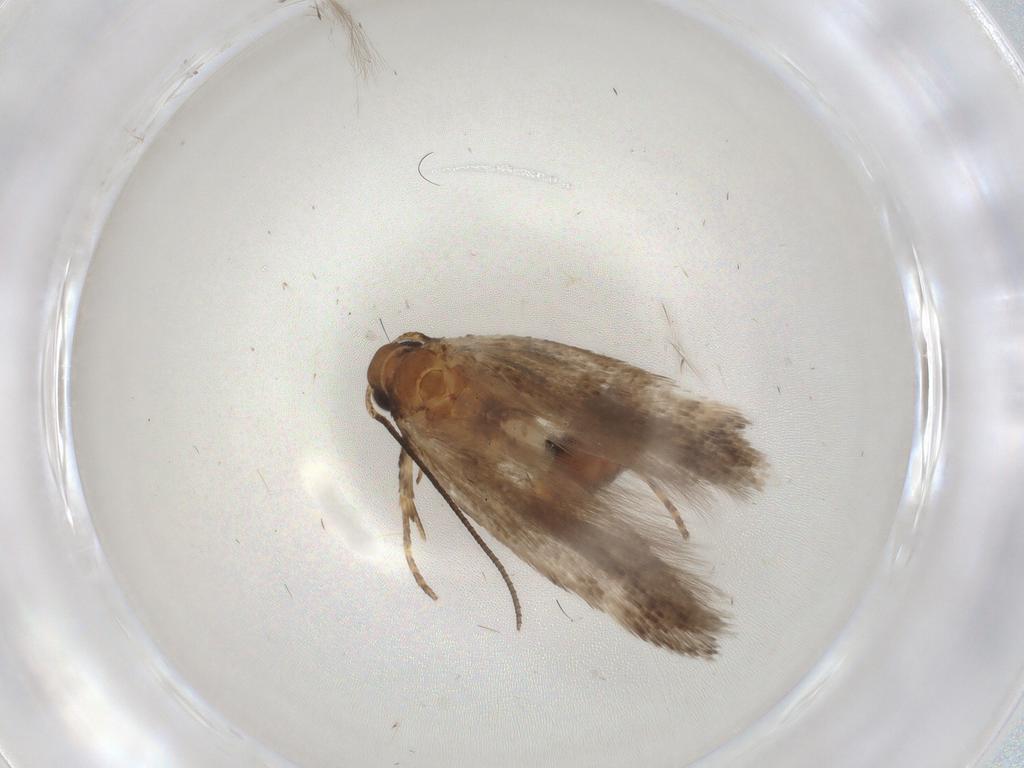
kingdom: Animalia
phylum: Arthropoda
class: Insecta
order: Lepidoptera
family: Gelechiidae
